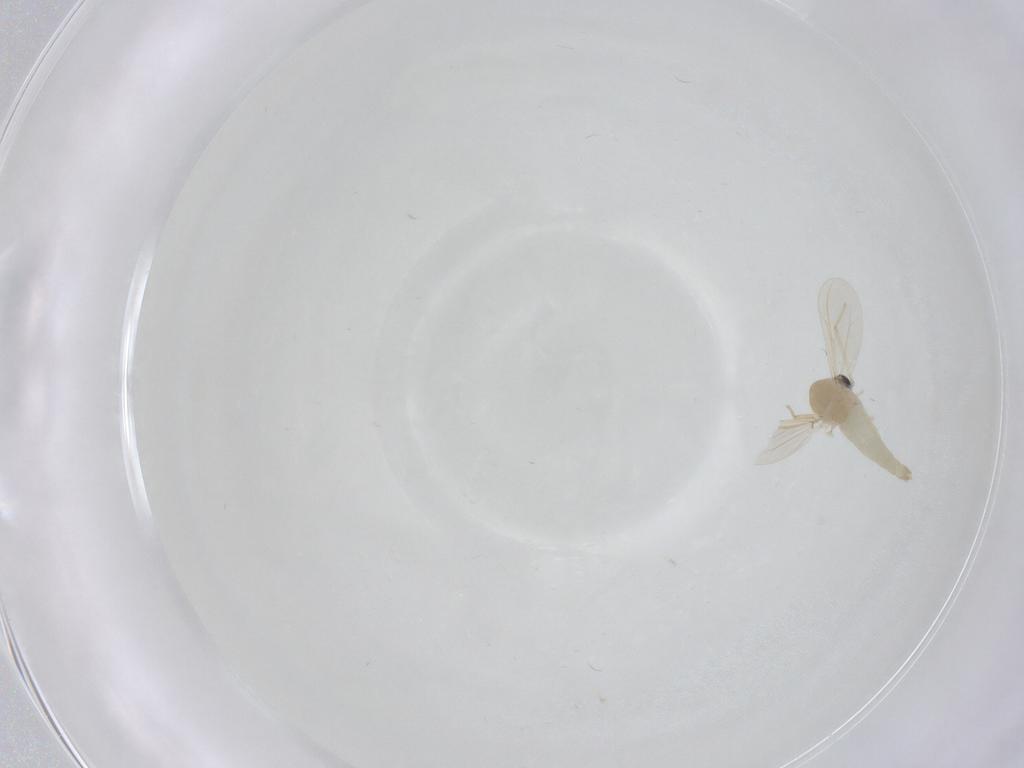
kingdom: Animalia
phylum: Arthropoda
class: Insecta
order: Diptera
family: Chironomidae
